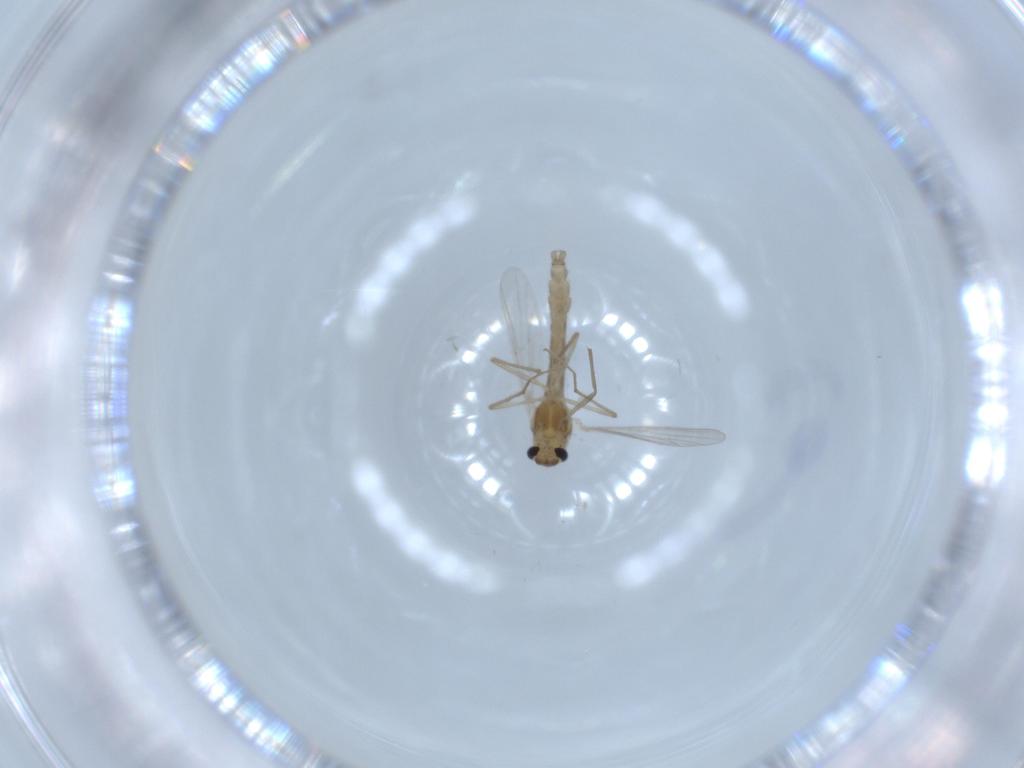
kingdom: Animalia
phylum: Arthropoda
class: Insecta
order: Diptera
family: Chironomidae
